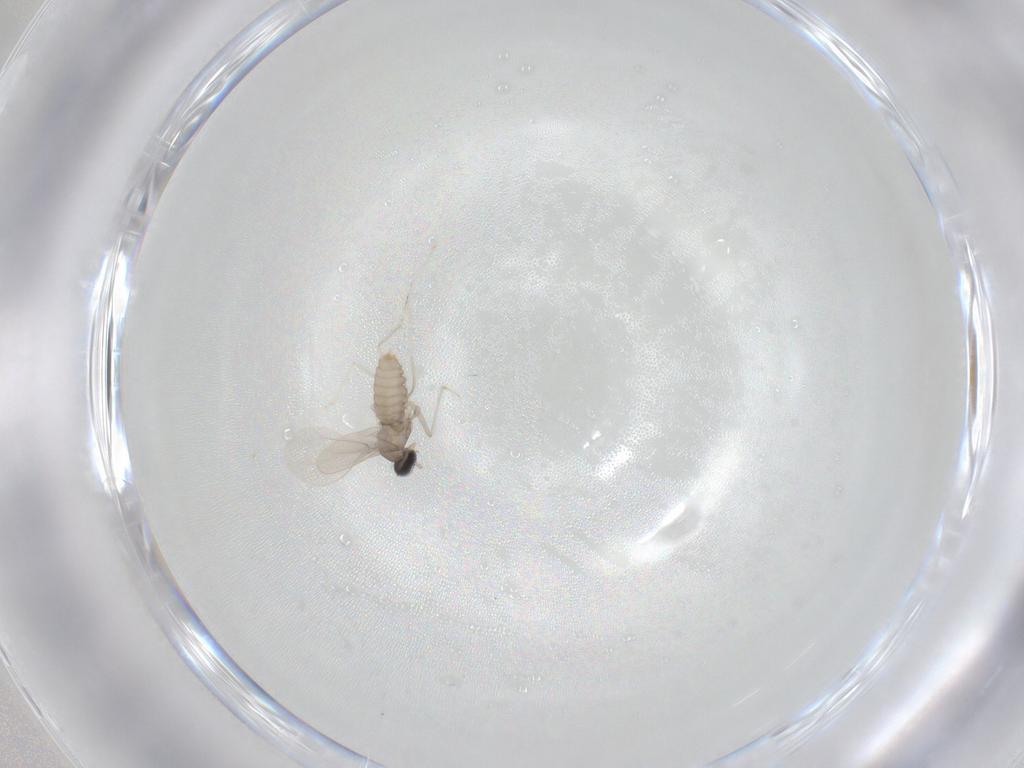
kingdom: Animalia
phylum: Arthropoda
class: Insecta
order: Diptera
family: Cecidomyiidae
